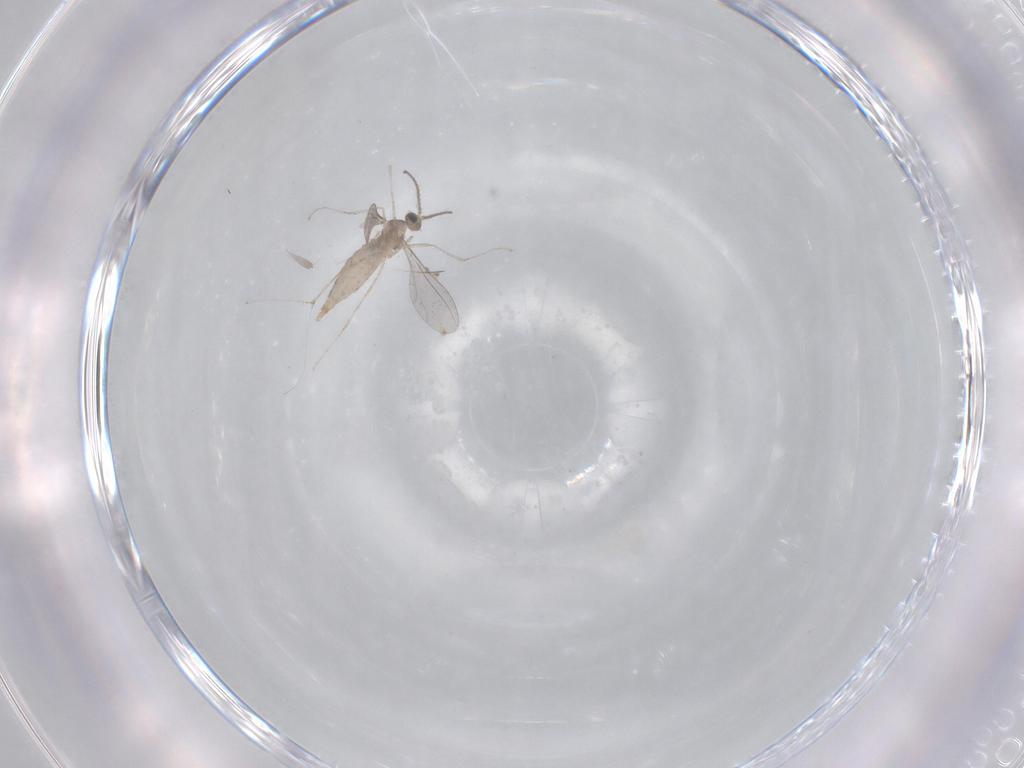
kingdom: Animalia
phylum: Arthropoda
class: Insecta
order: Diptera
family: Cecidomyiidae
